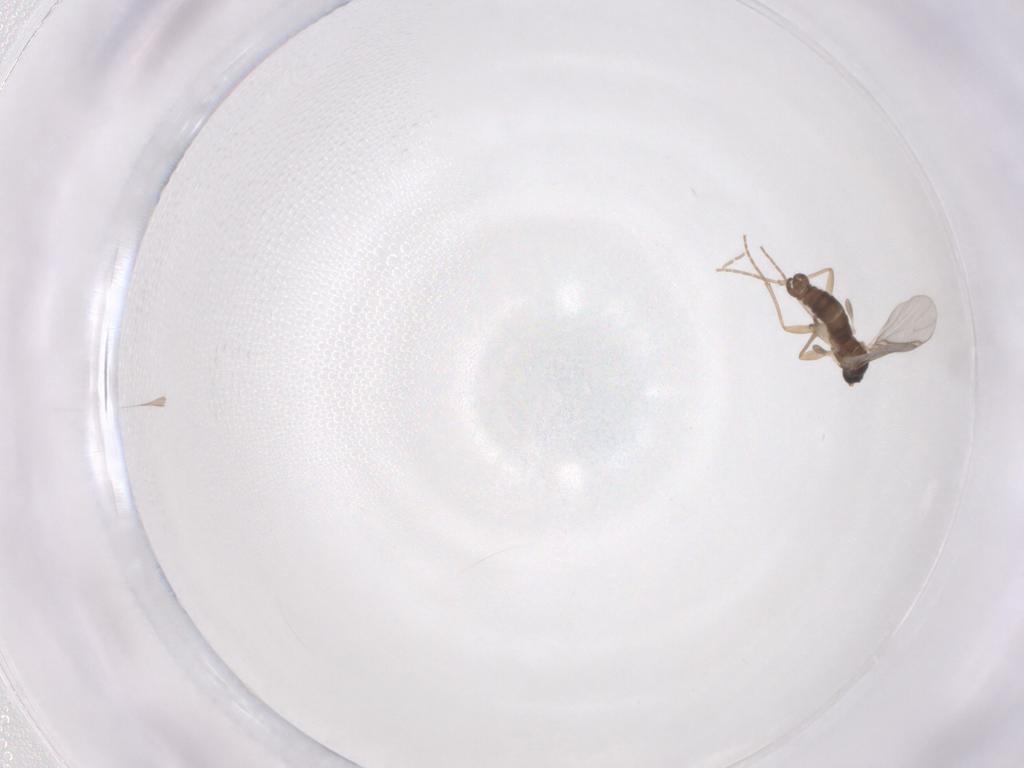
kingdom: Animalia
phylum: Arthropoda
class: Insecta
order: Diptera
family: Sciaridae
